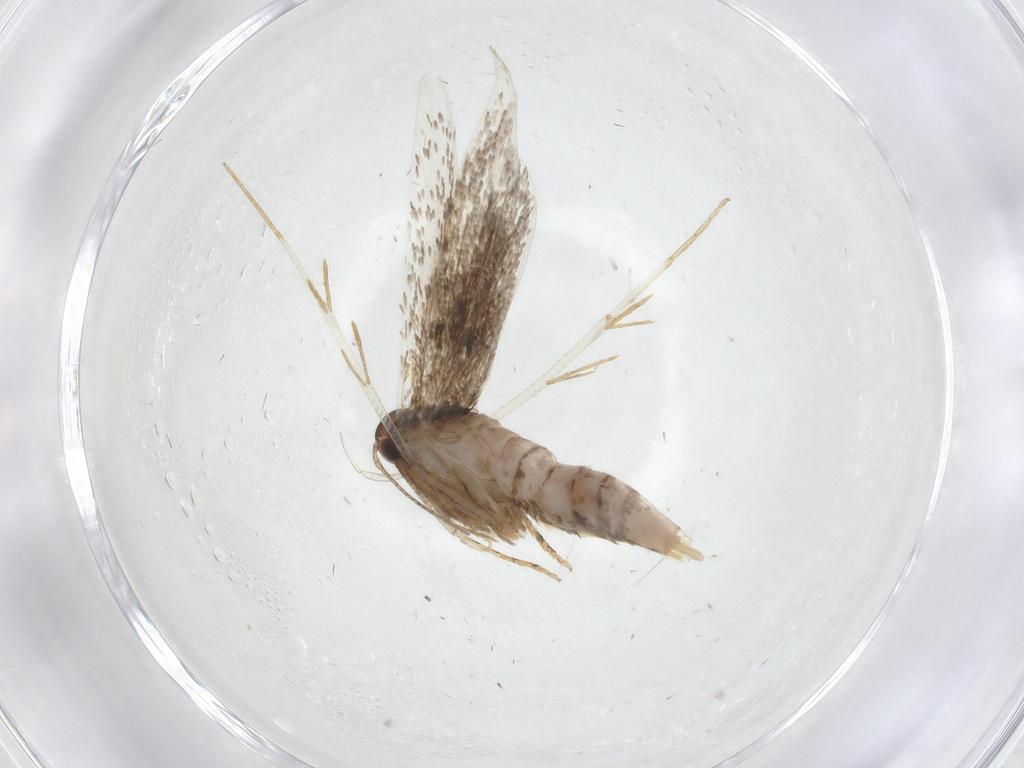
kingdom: Animalia
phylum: Arthropoda
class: Insecta
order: Lepidoptera
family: Gelechiidae
